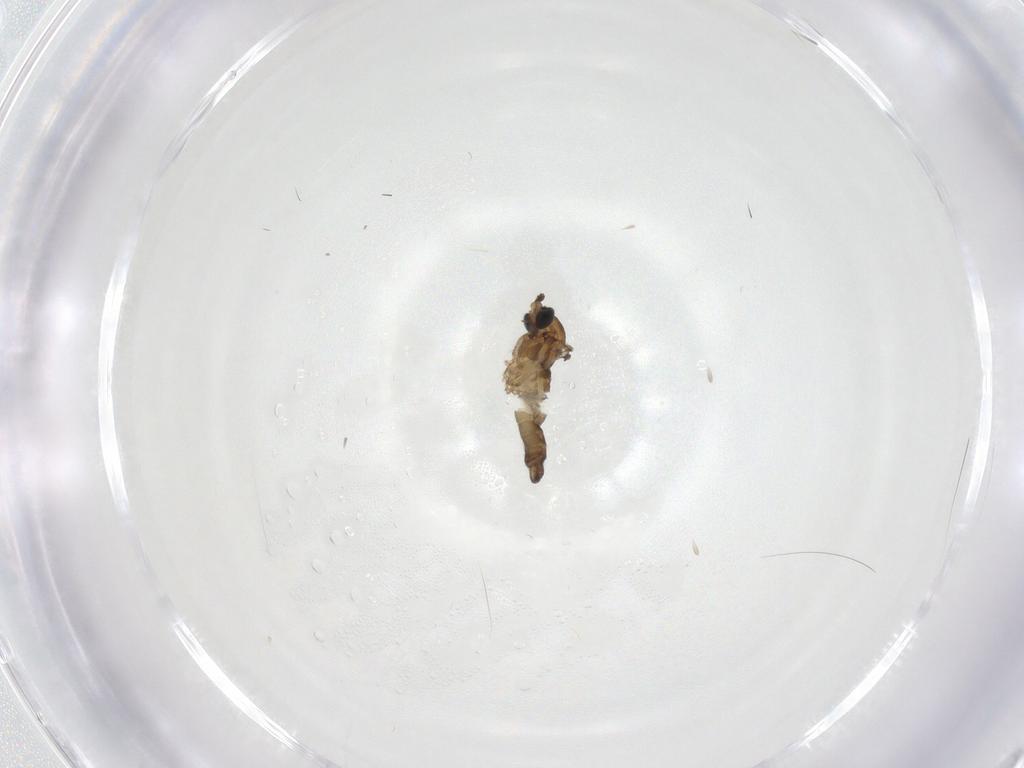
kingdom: Animalia
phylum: Arthropoda
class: Insecta
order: Diptera
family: Sciaridae
